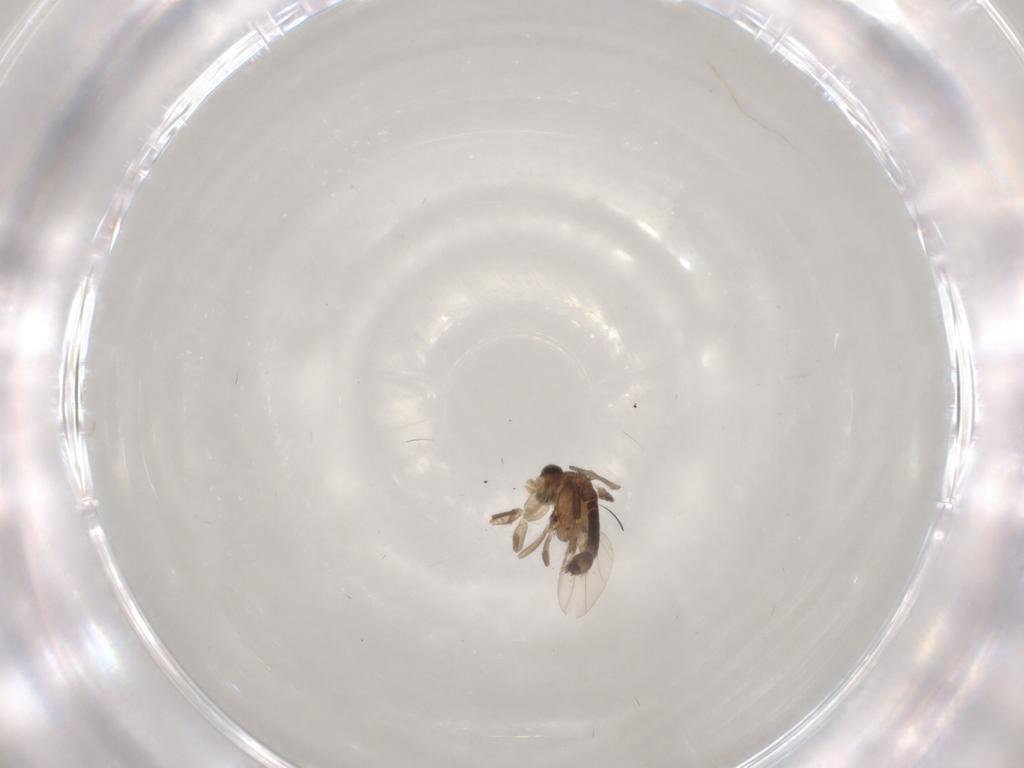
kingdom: Animalia
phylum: Arthropoda
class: Insecta
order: Diptera
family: Phoridae
